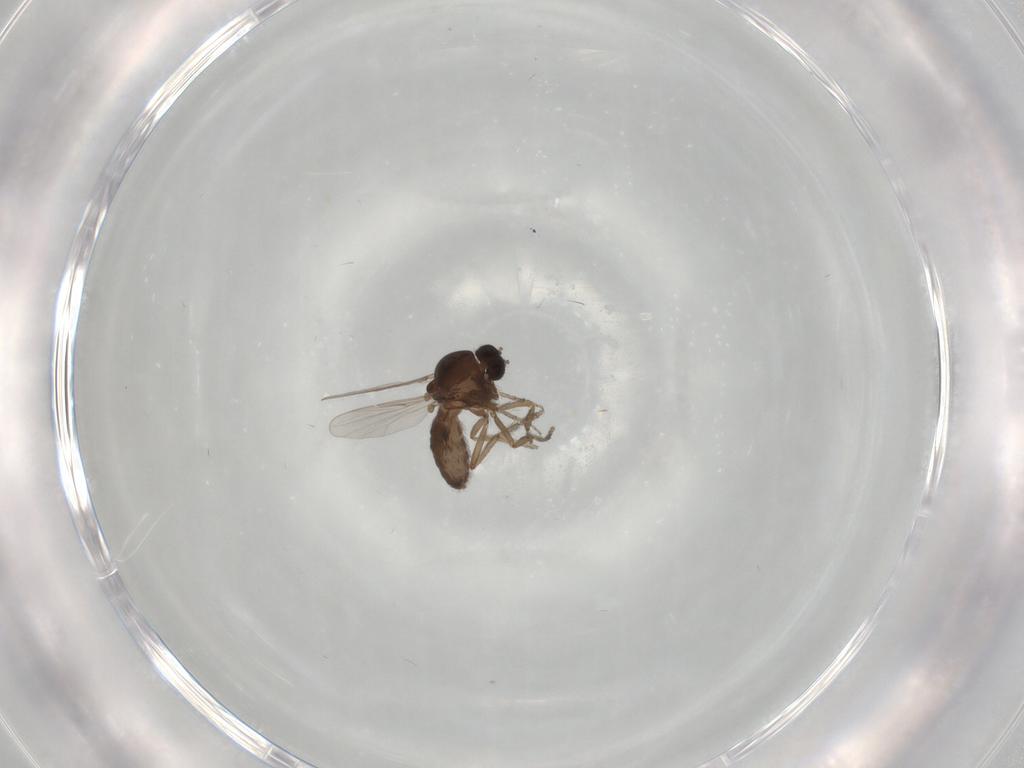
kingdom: Animalia
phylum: Arthropoda
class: Insecta
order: Diptera
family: Ceratopogonidae
